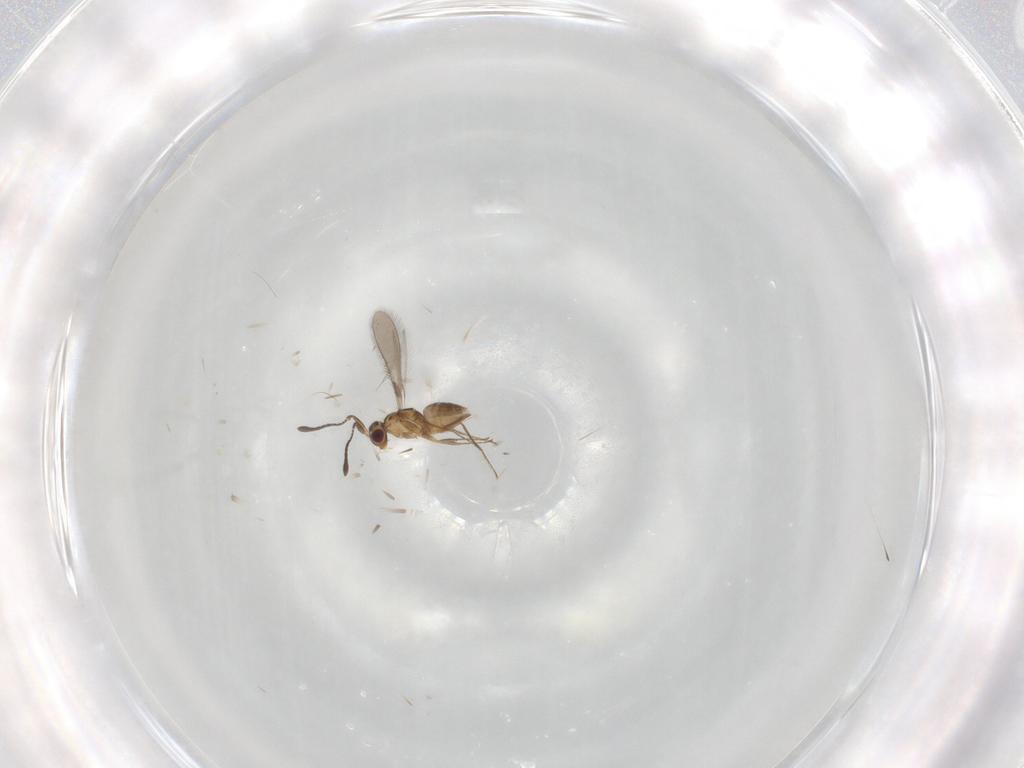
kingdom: Animalia
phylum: Arthropoda
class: Insecta
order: Hymenoptera
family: Mymaridae
